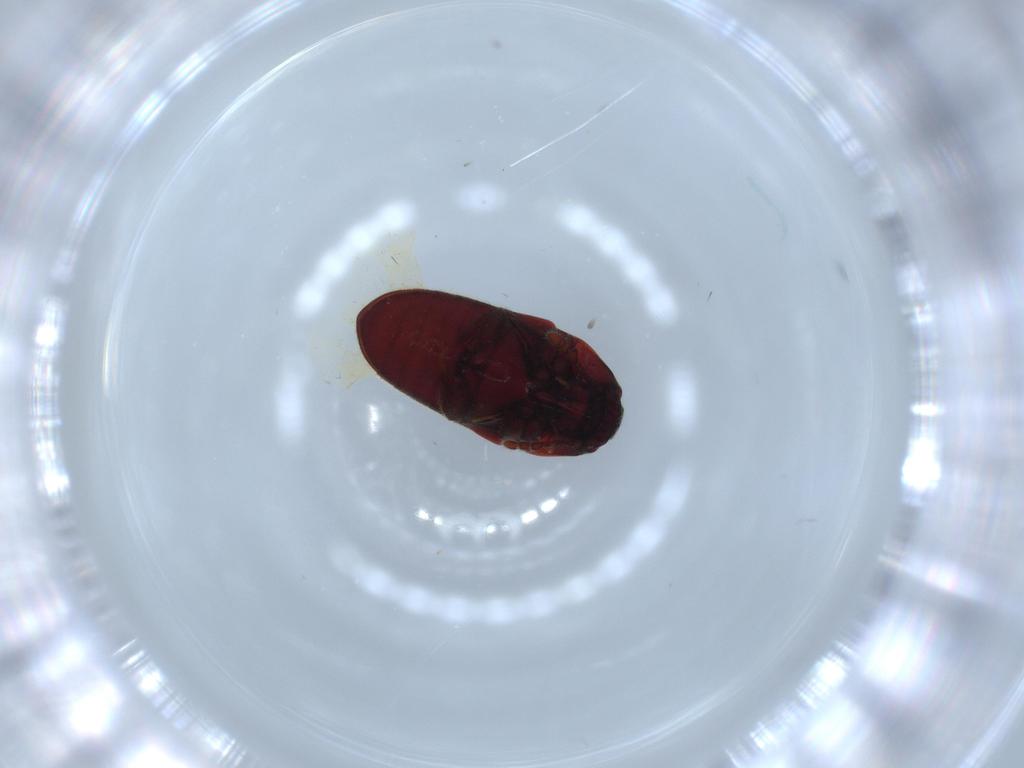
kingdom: Animalia
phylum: Arthropoda
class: Insecta
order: Coleoptera
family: Throscidae
